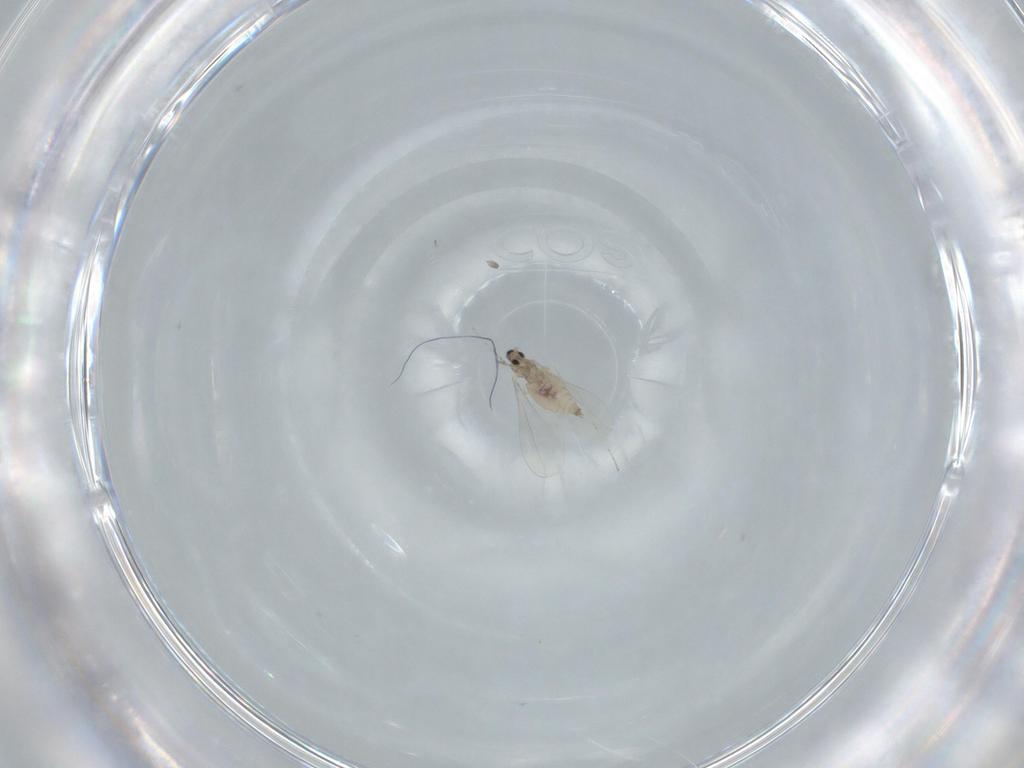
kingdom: Animalia
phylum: Arthropoda
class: Insecta
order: Diptera
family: Cecidomyiidae
